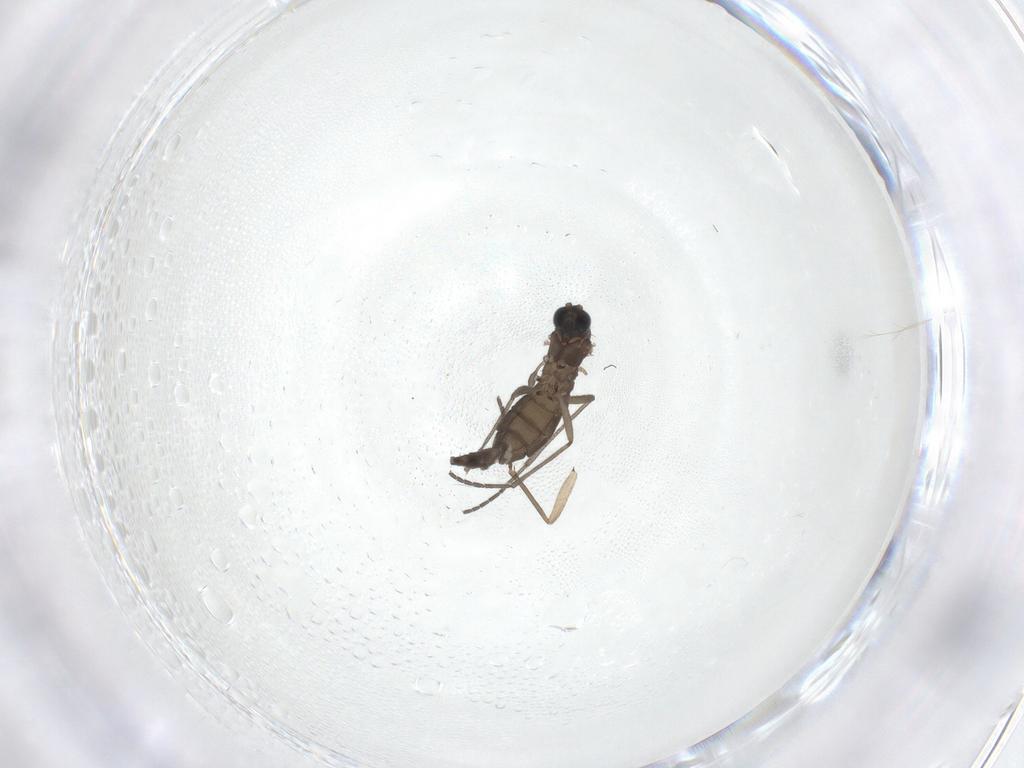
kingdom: Animalia
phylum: Arthropoda
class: Insecta
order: Diptera
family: Sciaridae
